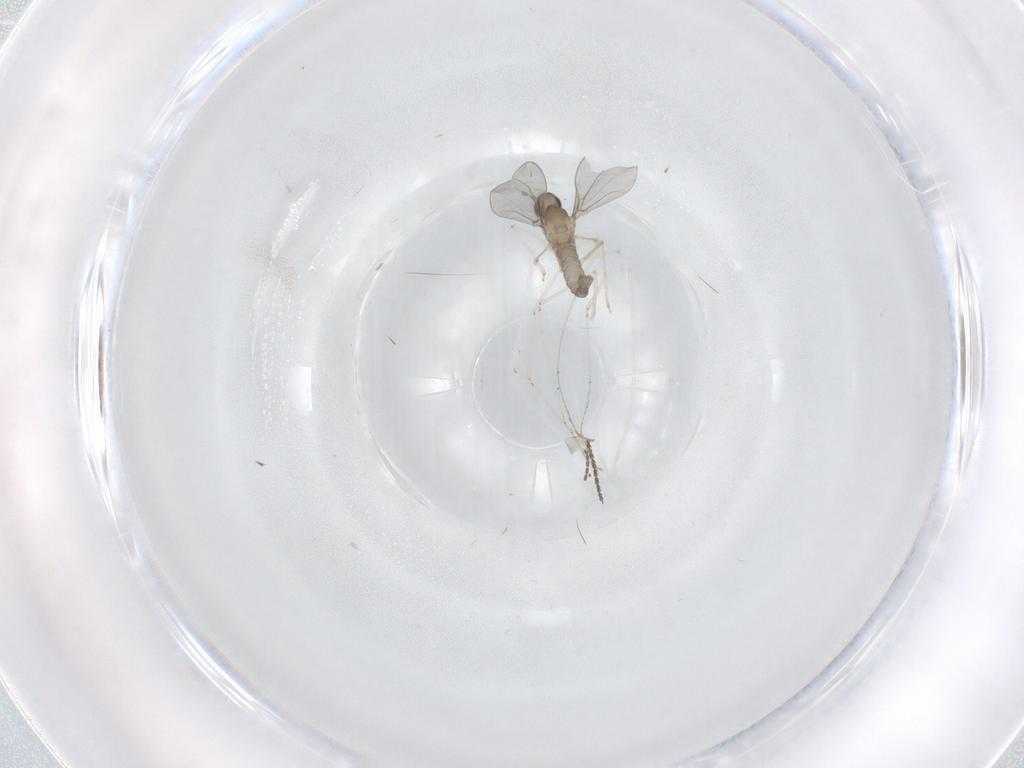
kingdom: Animalia
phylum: Arthropoda
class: Insecta
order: Diptera
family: Cecidomyiidae
